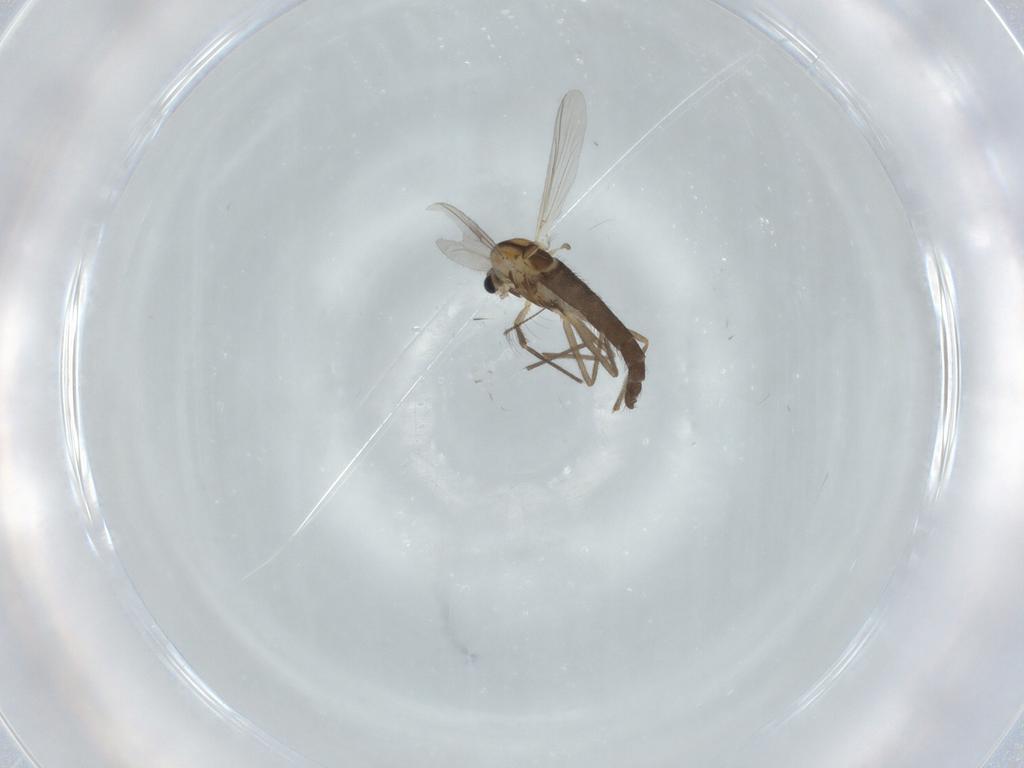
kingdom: Animalia
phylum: Arthropoda
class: Insecta
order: Diptera
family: Chironomidae
